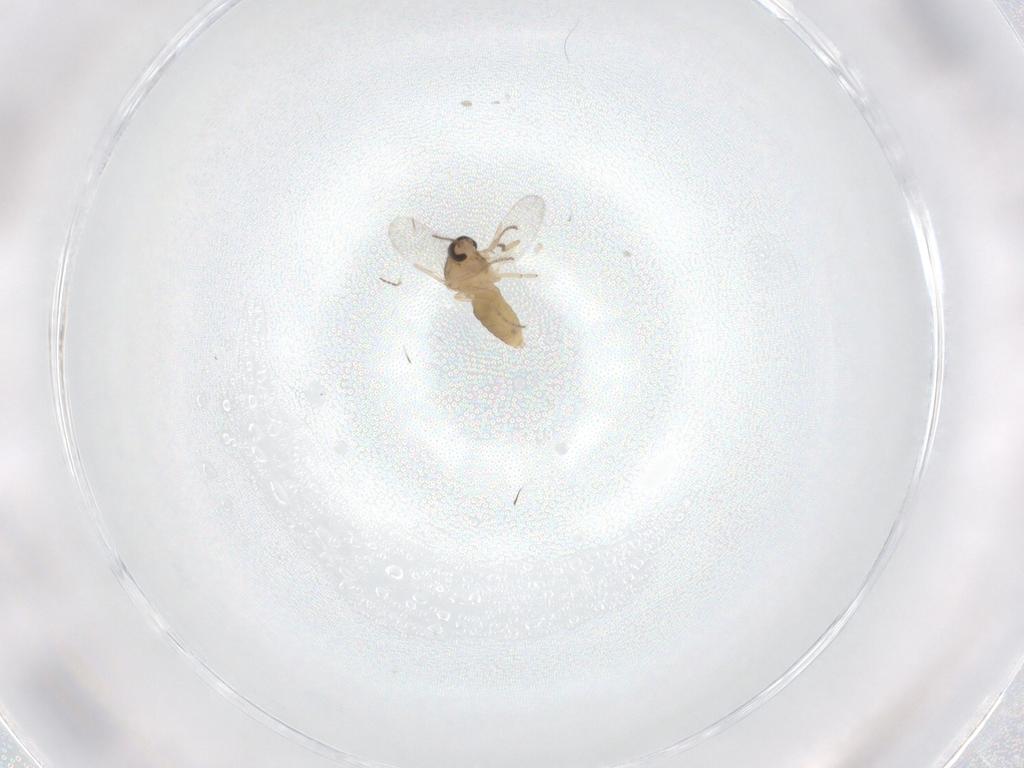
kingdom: Animalia
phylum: Arthropoda
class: Insecta
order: Diptera
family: Ceratopogonidae
